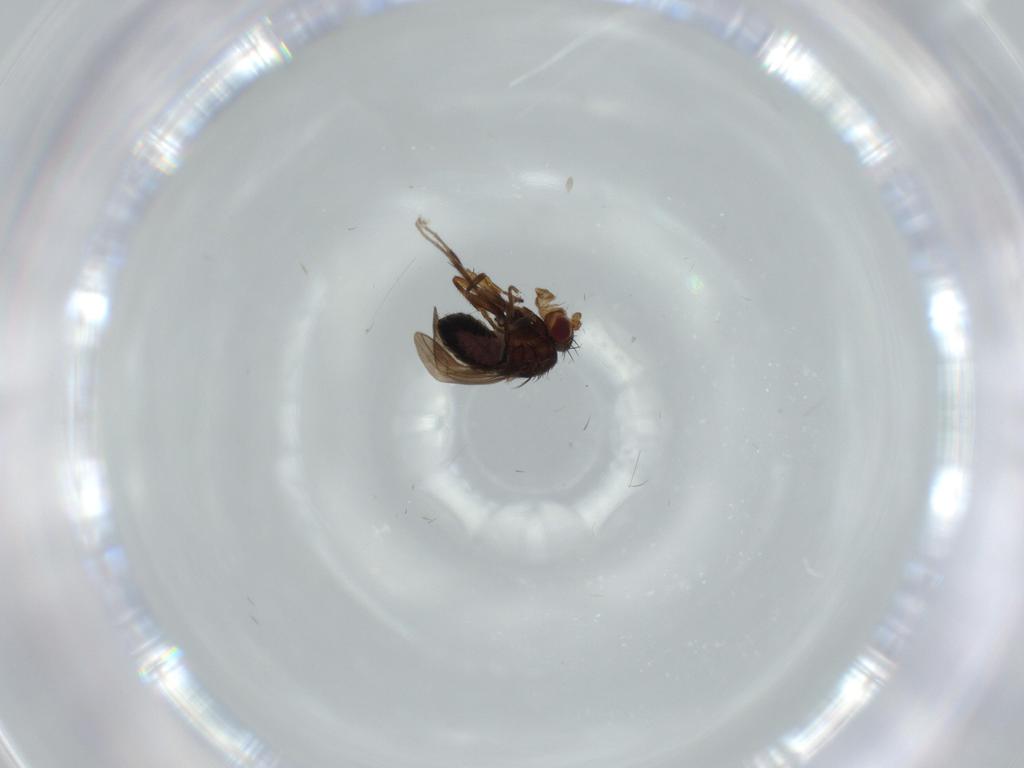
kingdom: Animalia
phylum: Arthropoda
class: Insecta
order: Diptera
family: Sphaeroceridae
